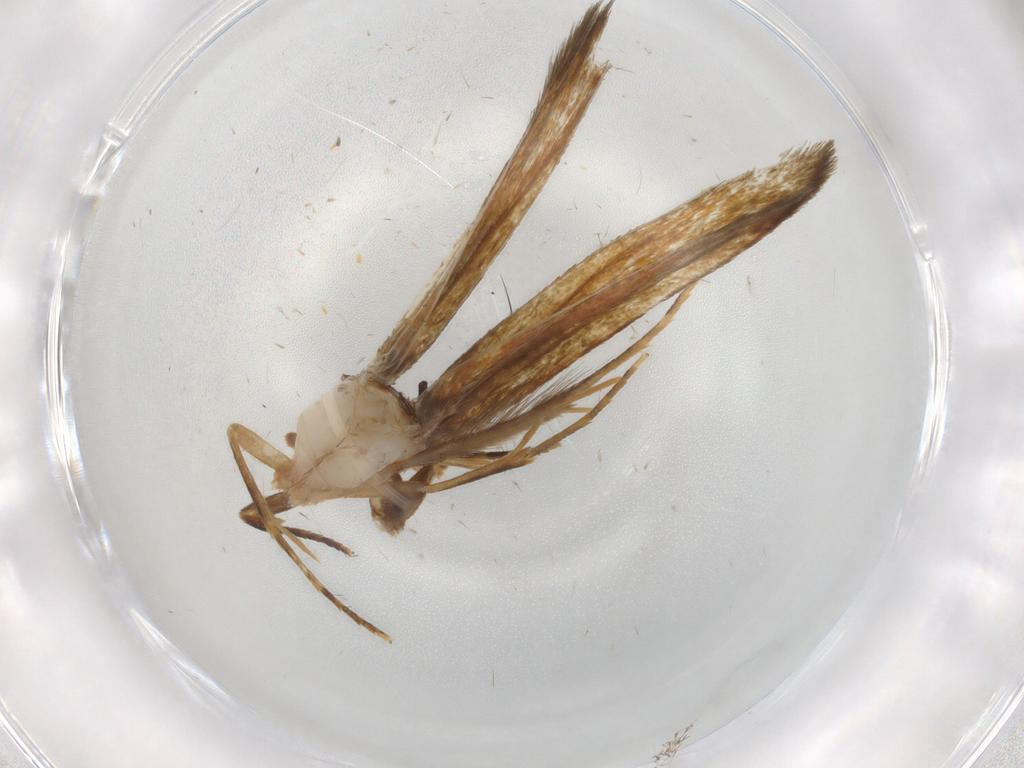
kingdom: Animalia
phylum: Arthropoda
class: Insecta
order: Lepidoptera
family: Tineidae
